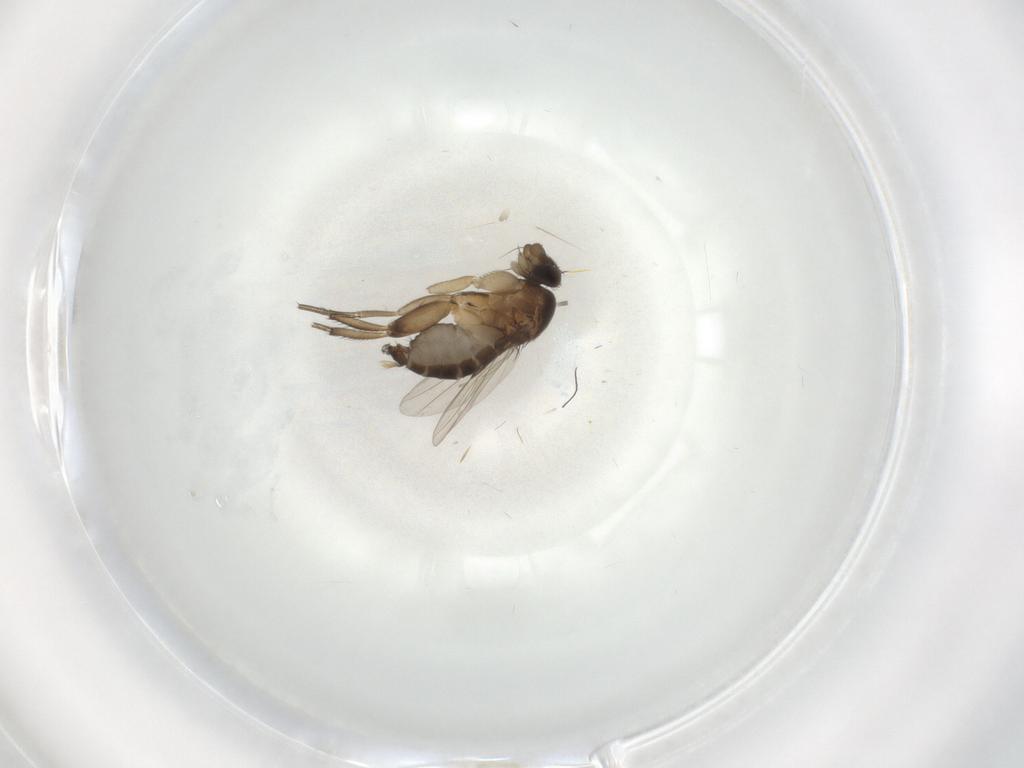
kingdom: Animalia
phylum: Arthropoda
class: Insecta
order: Diptera
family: Phoridae
